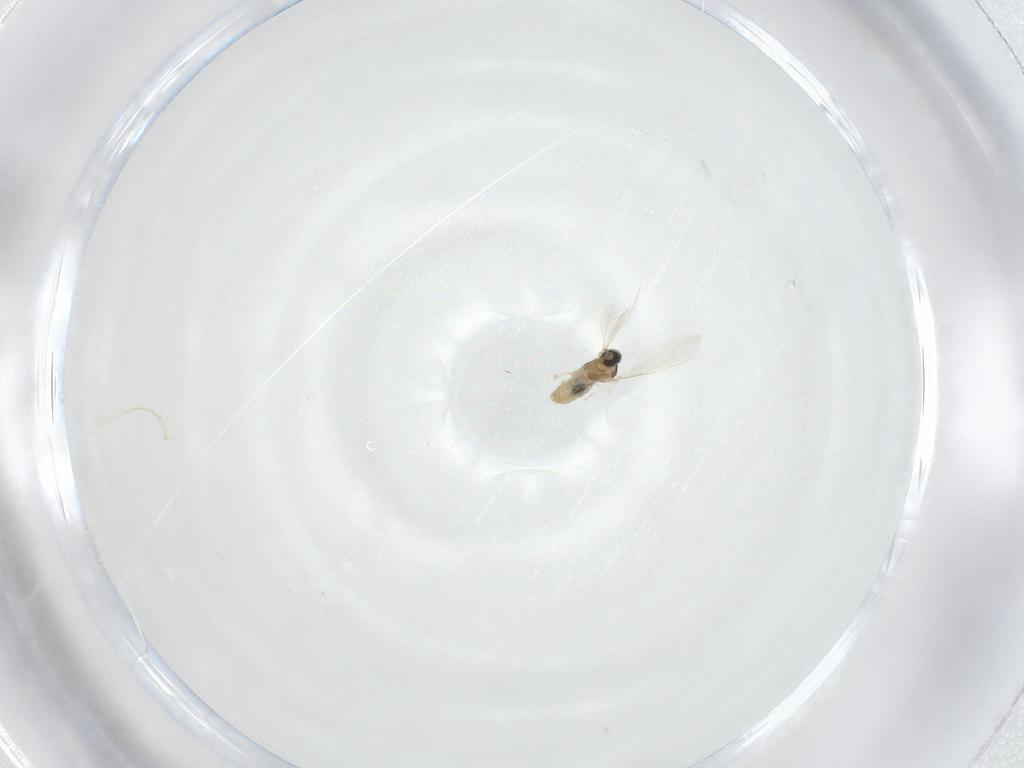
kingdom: Animalia
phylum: Arthropoda
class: Insecta
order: Diptera
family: Cecidomyiidae
